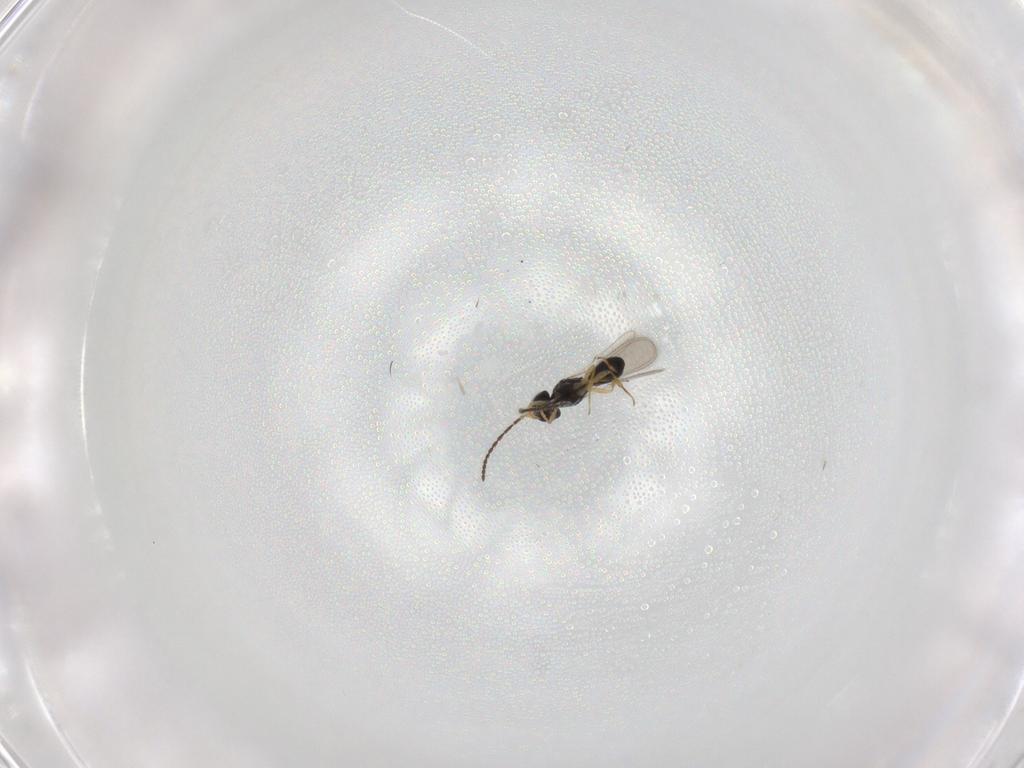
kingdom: Animalia
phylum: Arthropoda
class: Insecta
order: Hymenoptera
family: Scelionidae
